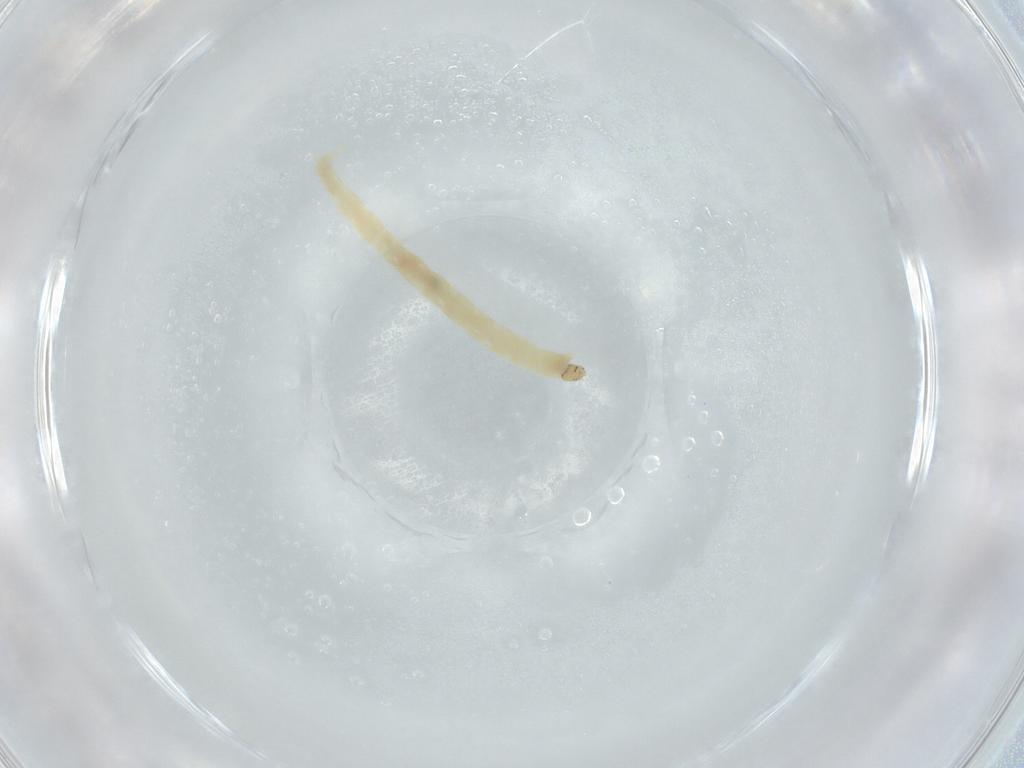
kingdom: Animalia
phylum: Arthropoda
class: Insecta
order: Diptera
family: Chironomidae
